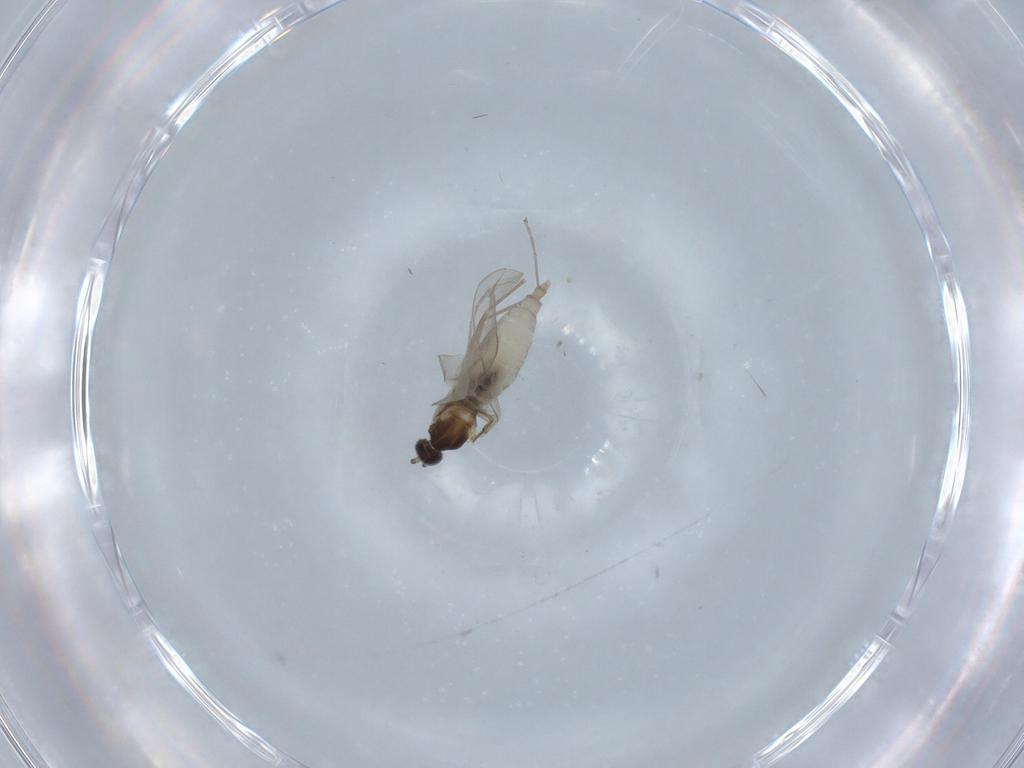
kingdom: Animalia
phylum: Arthropoda
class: Insecta
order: Diptera
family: Cecidomyiidae
